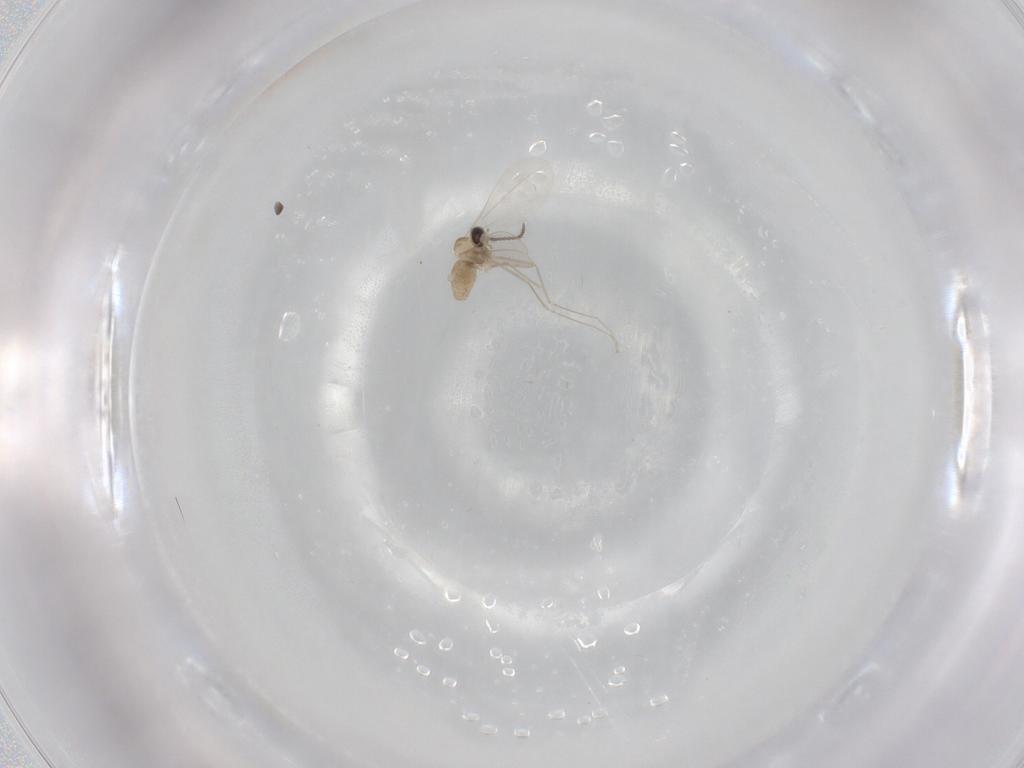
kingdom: Animalia
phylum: Arthropoda
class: Insecta
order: Diptera
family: Cecidomyiidae
